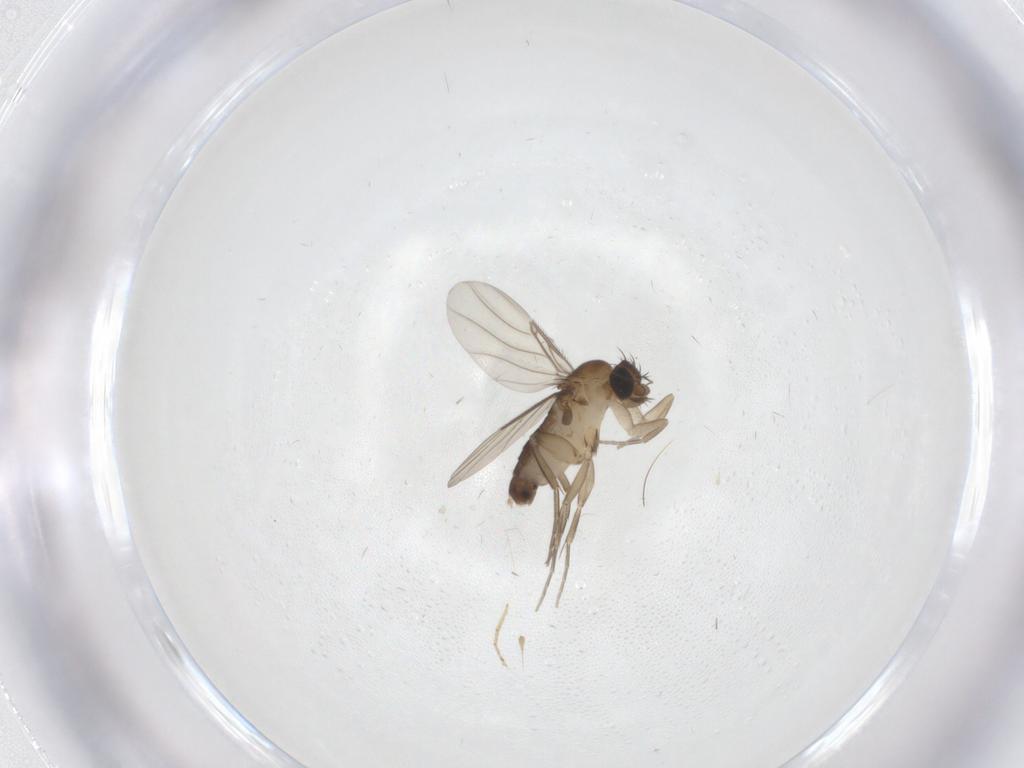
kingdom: Animalia
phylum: Arthropoda
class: Insecta
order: Diptera
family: Phoridae
